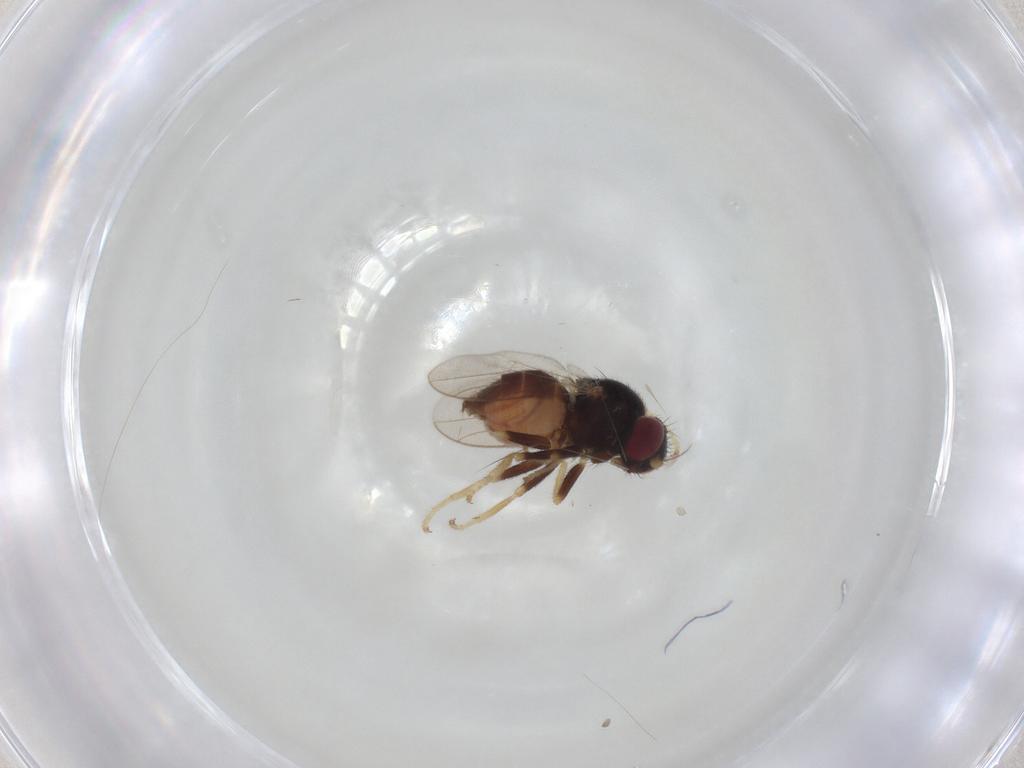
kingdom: Animalia
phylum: Arthropoda
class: Insecta
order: Diptera
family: Chloropidae
